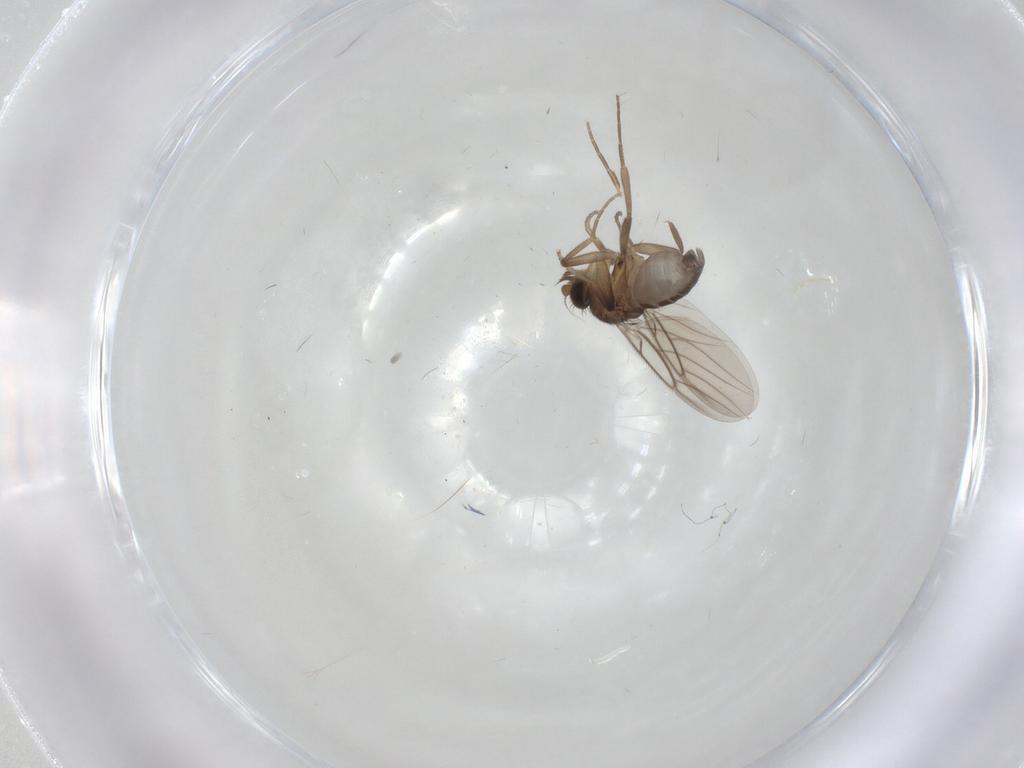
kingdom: Animalia
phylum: Arthropoda
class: Insecta
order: Diptera
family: Phoridae
